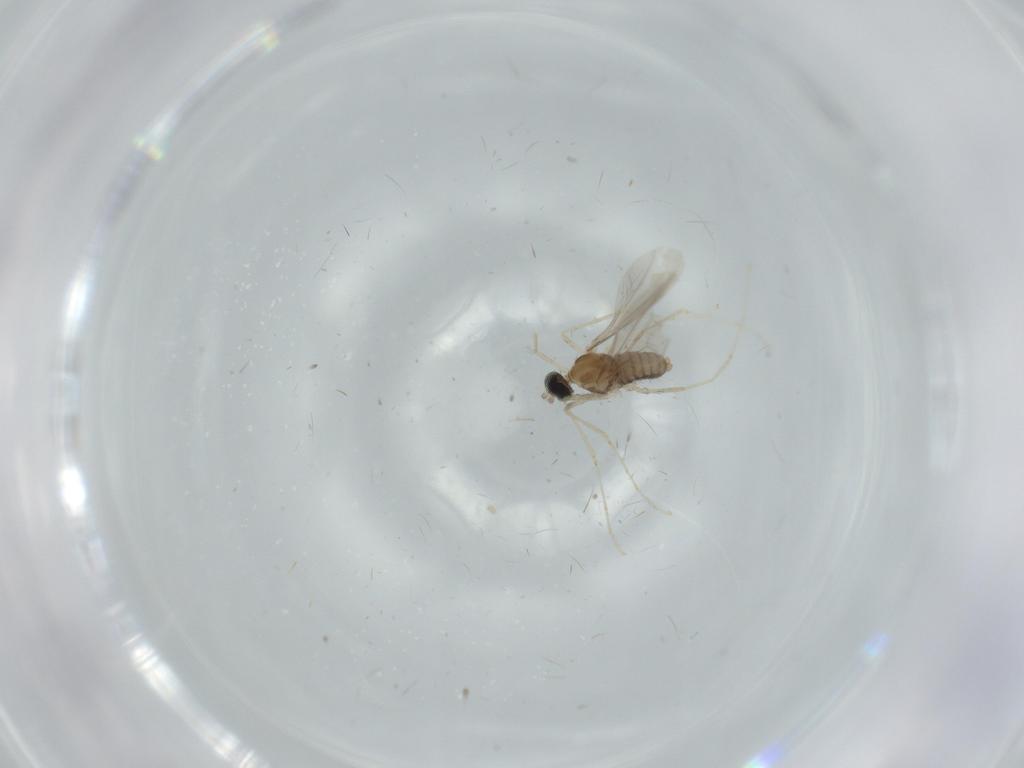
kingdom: Animalia
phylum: Arthropoda
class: Insecta
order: Diptera
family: Cecidomyiidae
